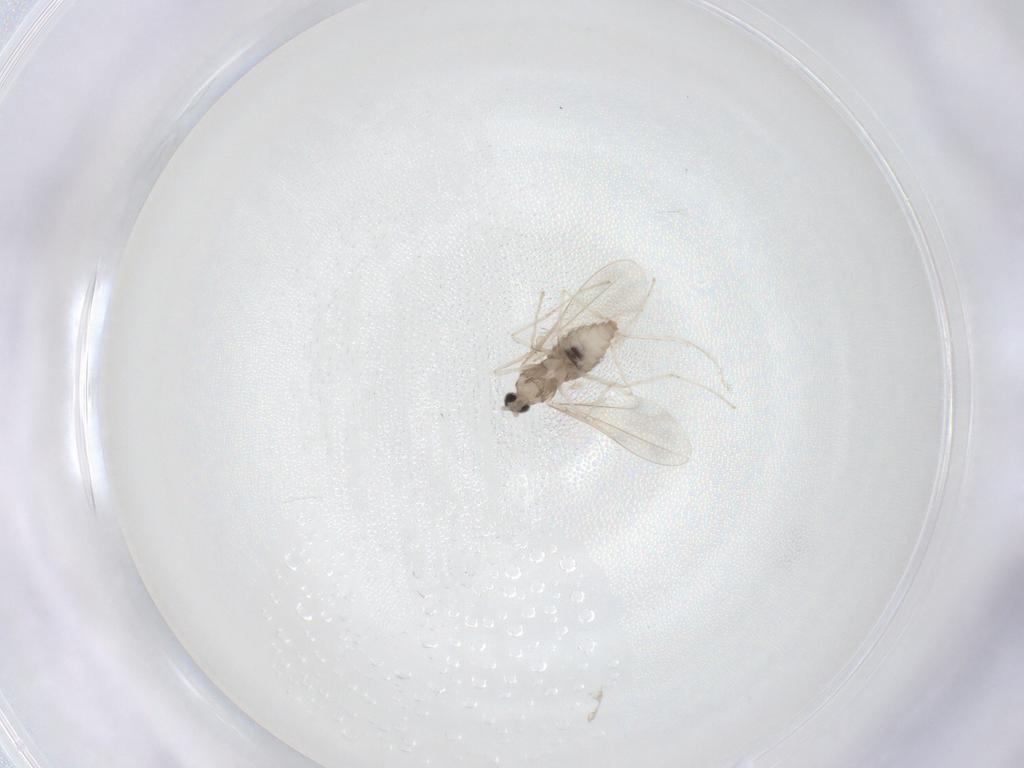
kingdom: Animalia
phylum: Arthropoda
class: Insecta
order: Diptera
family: Cecidomyiidae
